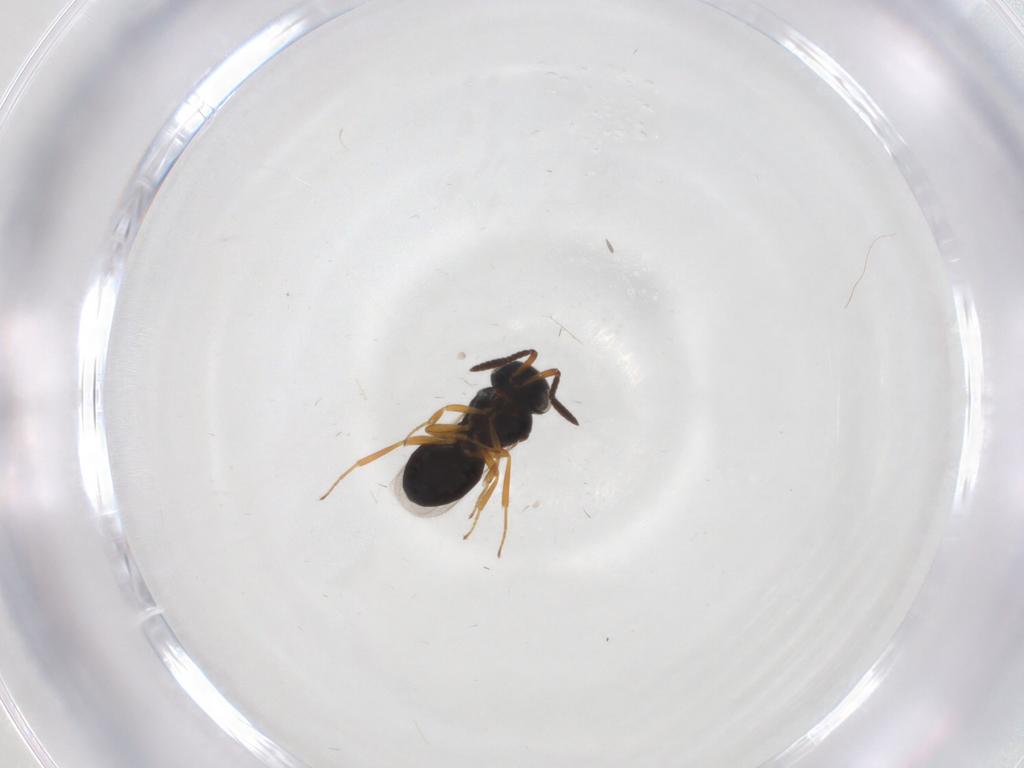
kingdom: Animalia
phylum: Arthropoda
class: Insecta
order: Hymenoptera
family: Scelionidae
